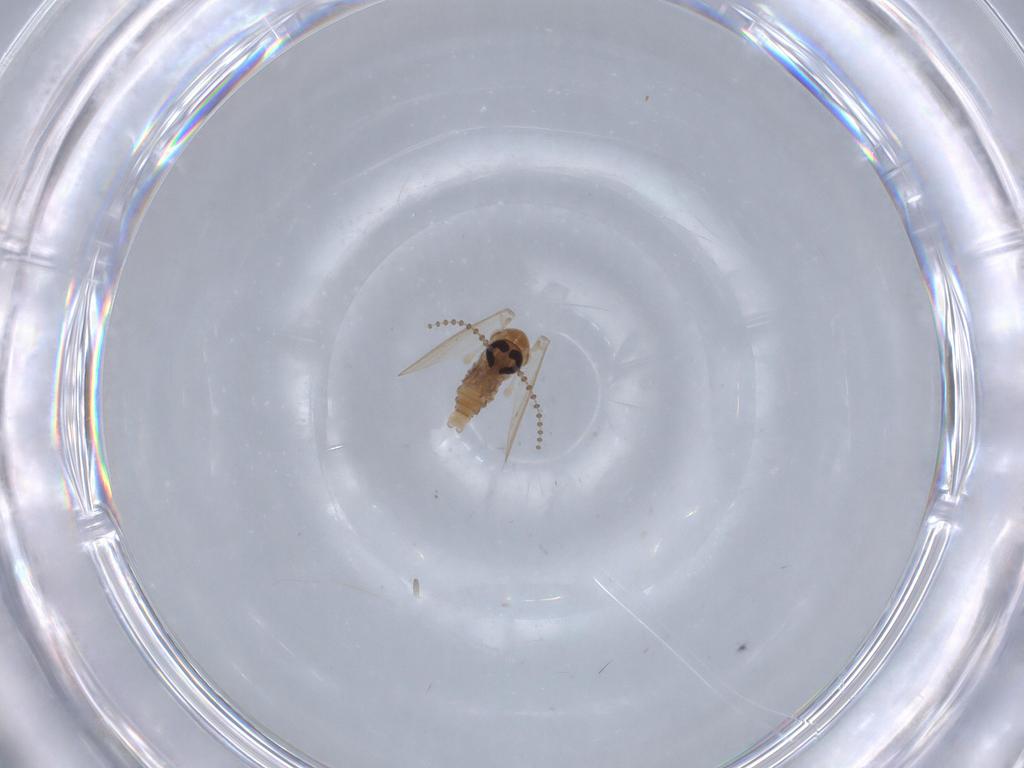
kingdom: Animalia
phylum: Arthropoda
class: Insecta
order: Diptera
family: Psychodidae
